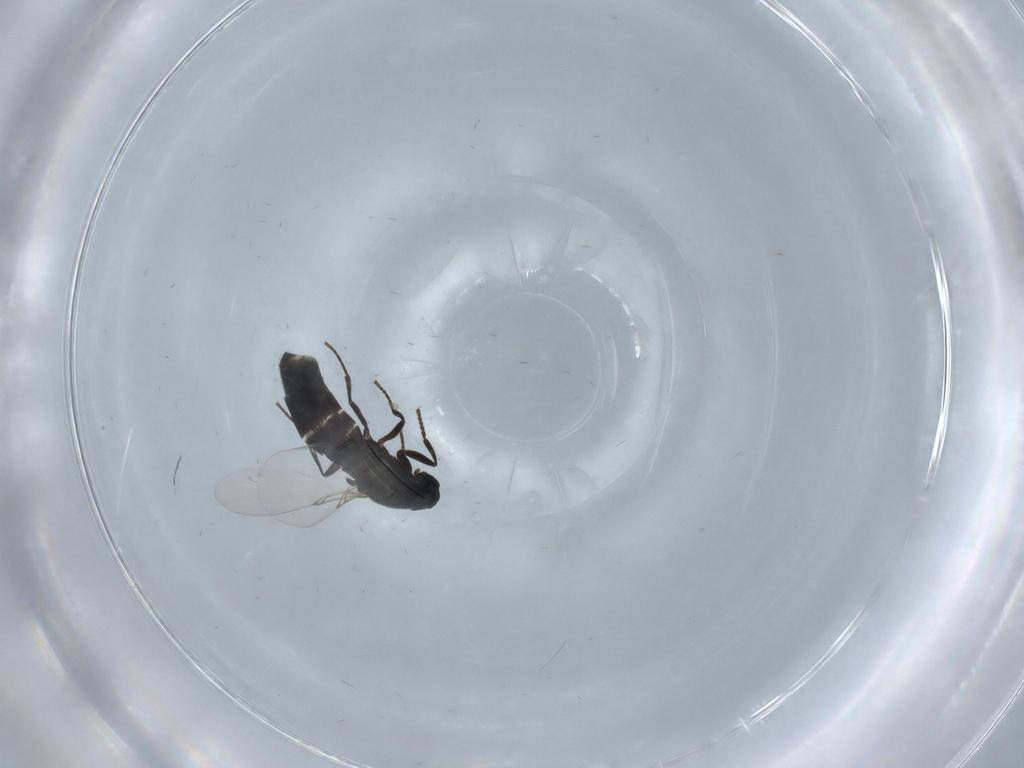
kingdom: Animalia
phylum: Arthropoda
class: Insecta
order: Diptera
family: Scatopsidae
